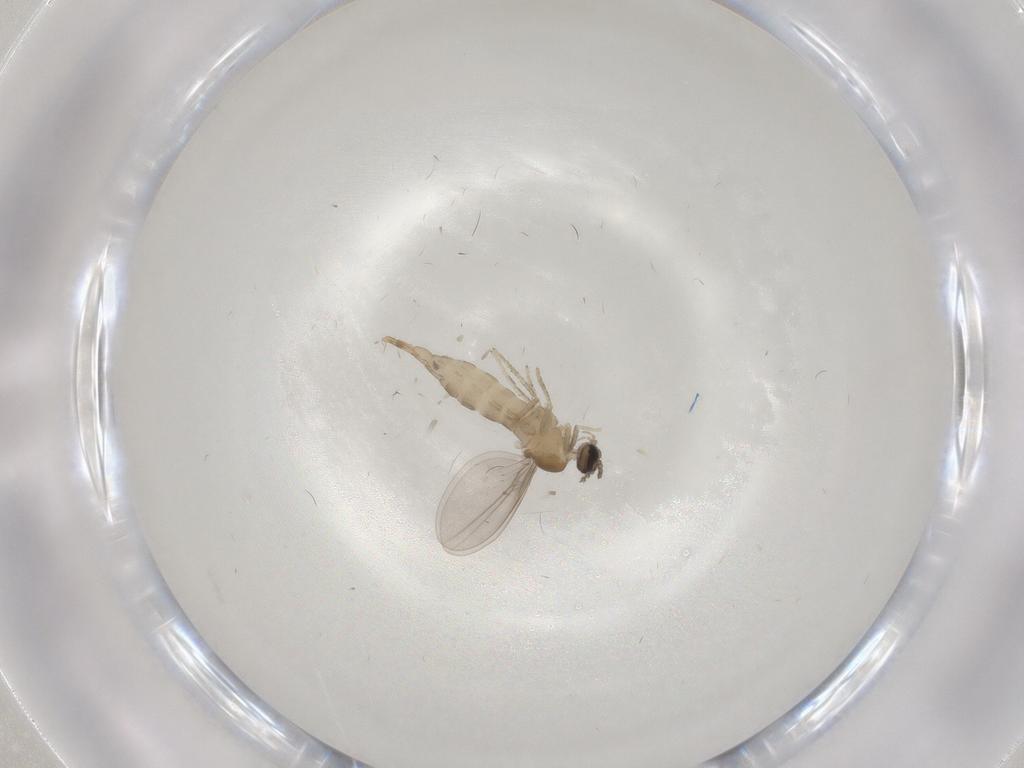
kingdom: Animalia
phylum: Arthropoda
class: Insecta
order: Diptera
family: Cecidomyiidae
